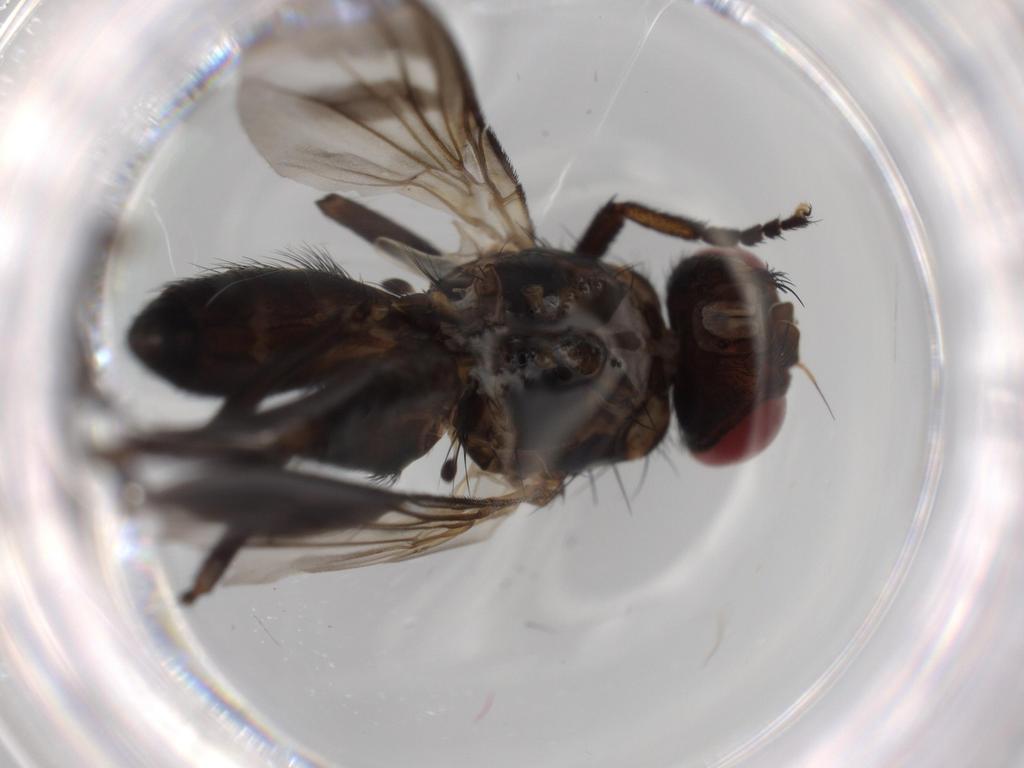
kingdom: Animalia
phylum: Arthropoda
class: Insecta
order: Diptera
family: Calliphoridae
